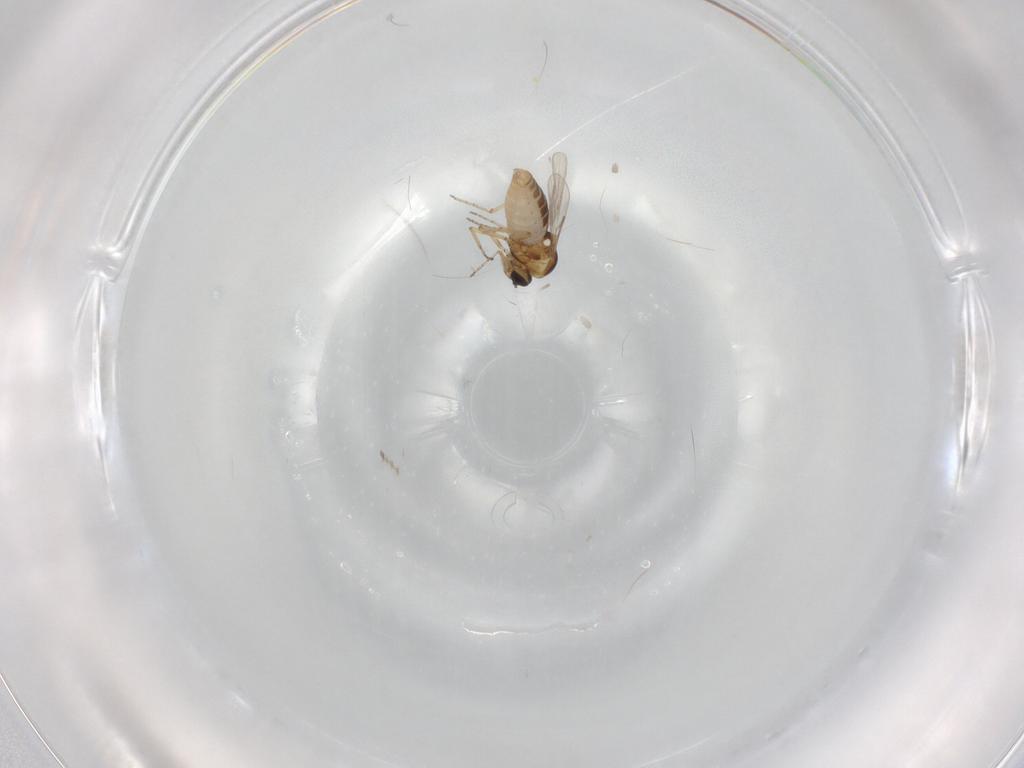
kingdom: Animalia
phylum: Arthropoda
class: Insecta
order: Diptera
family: Ceratopogonidae
